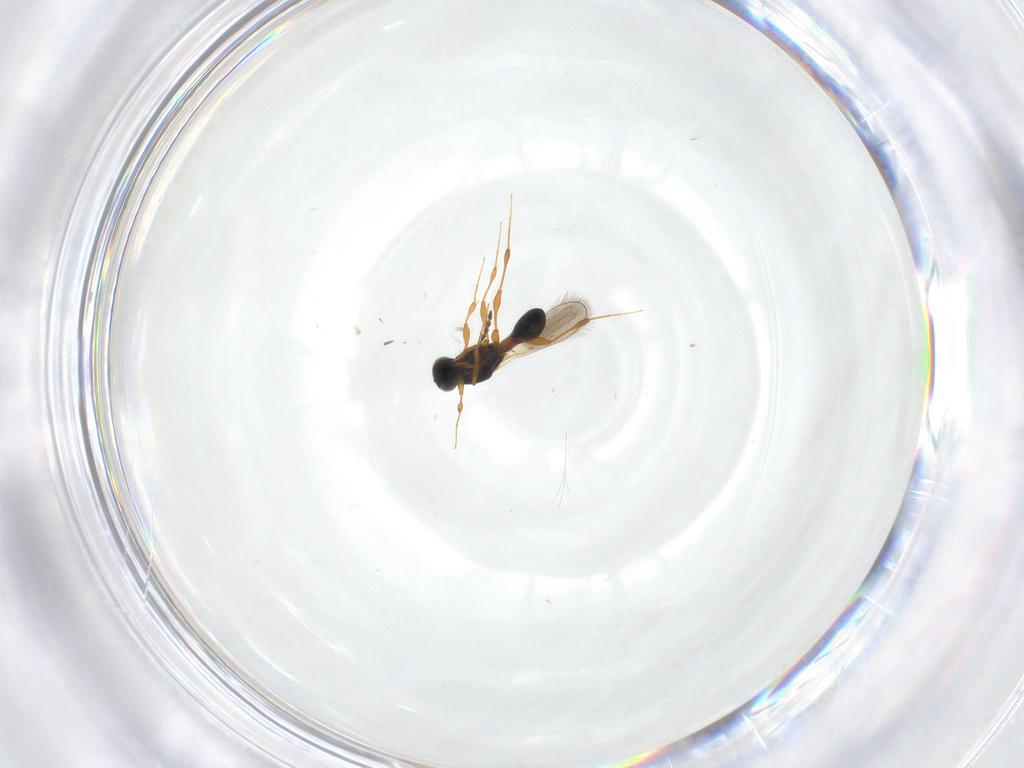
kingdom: Animalia
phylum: Arthropoda
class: Insecta
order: Hymenoptera
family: Platygastridae
